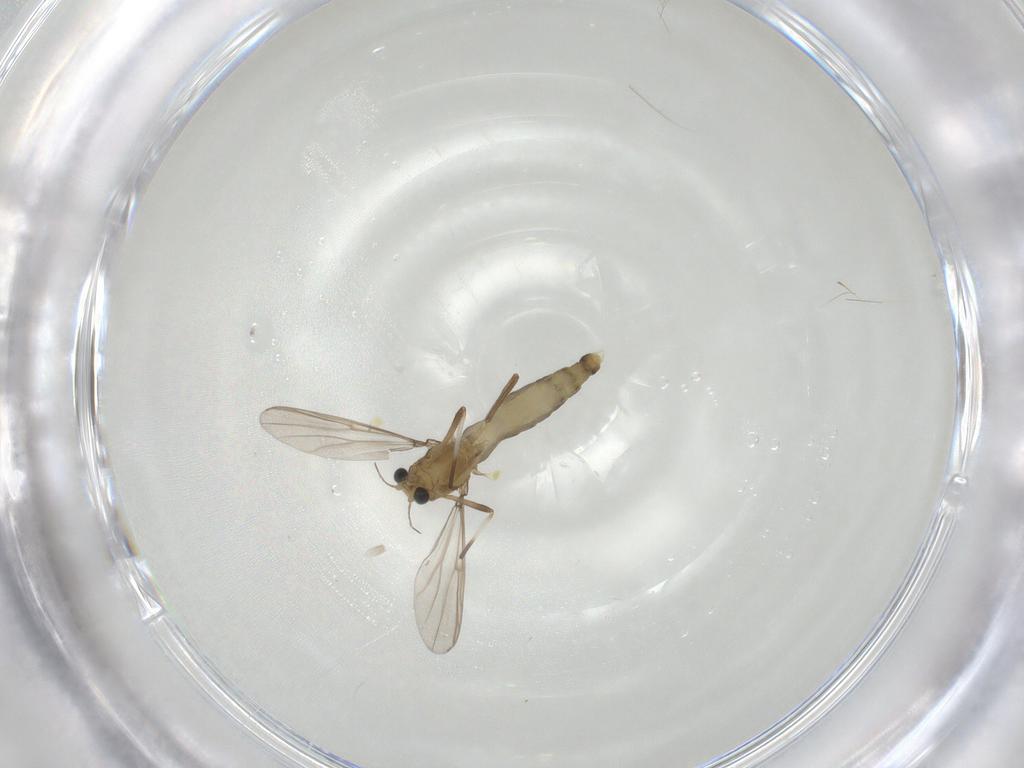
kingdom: Animalia
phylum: Arthropoda
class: Insecta
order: Diptera
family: Chironomidae
